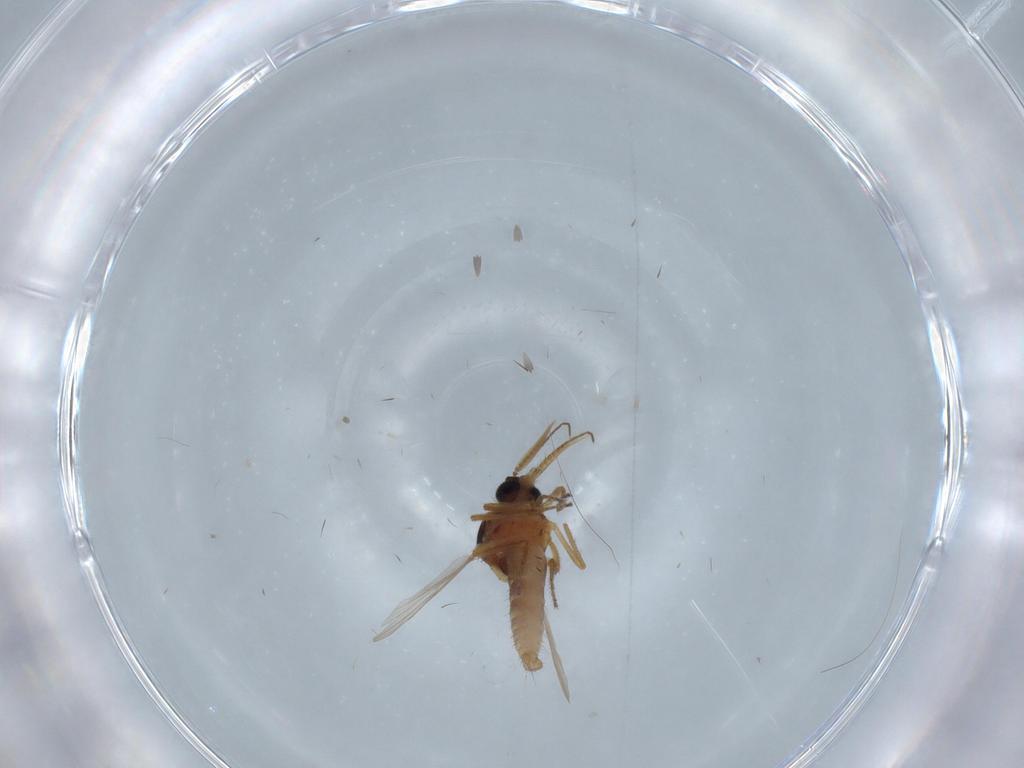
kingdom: Animalia
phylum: Arthropoda
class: Insecta
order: Diptera
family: Ceratopogonidae
